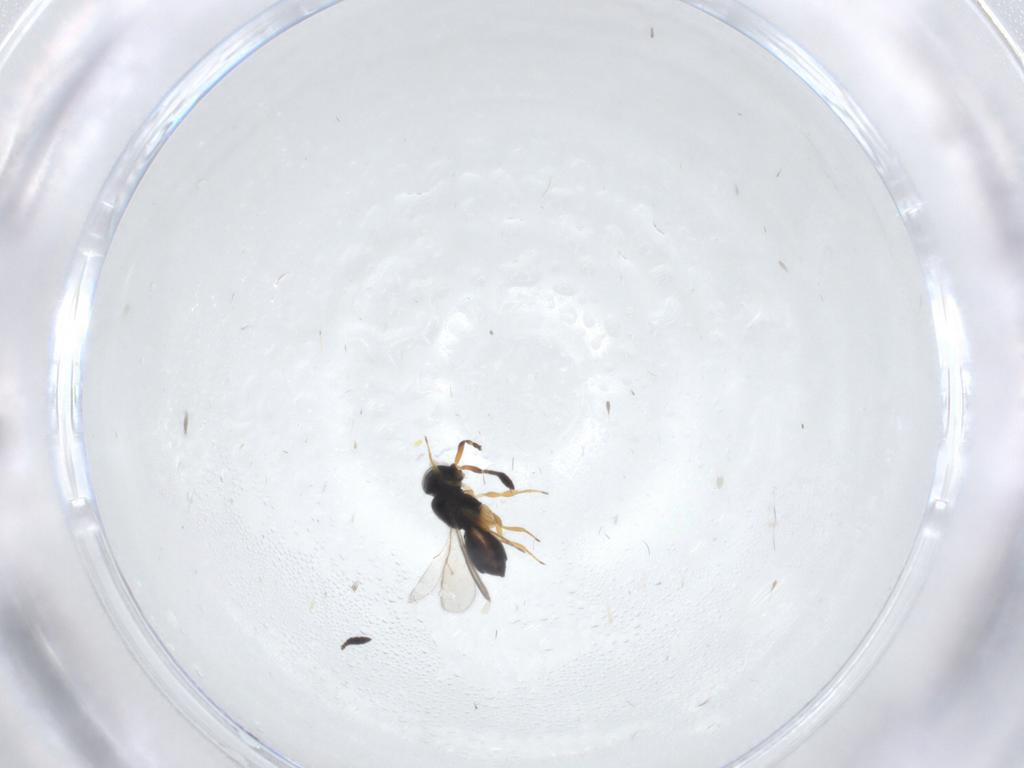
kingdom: Animalia
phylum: Arthropoda
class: Insecta
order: Hymenoptera
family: Scelionidae
